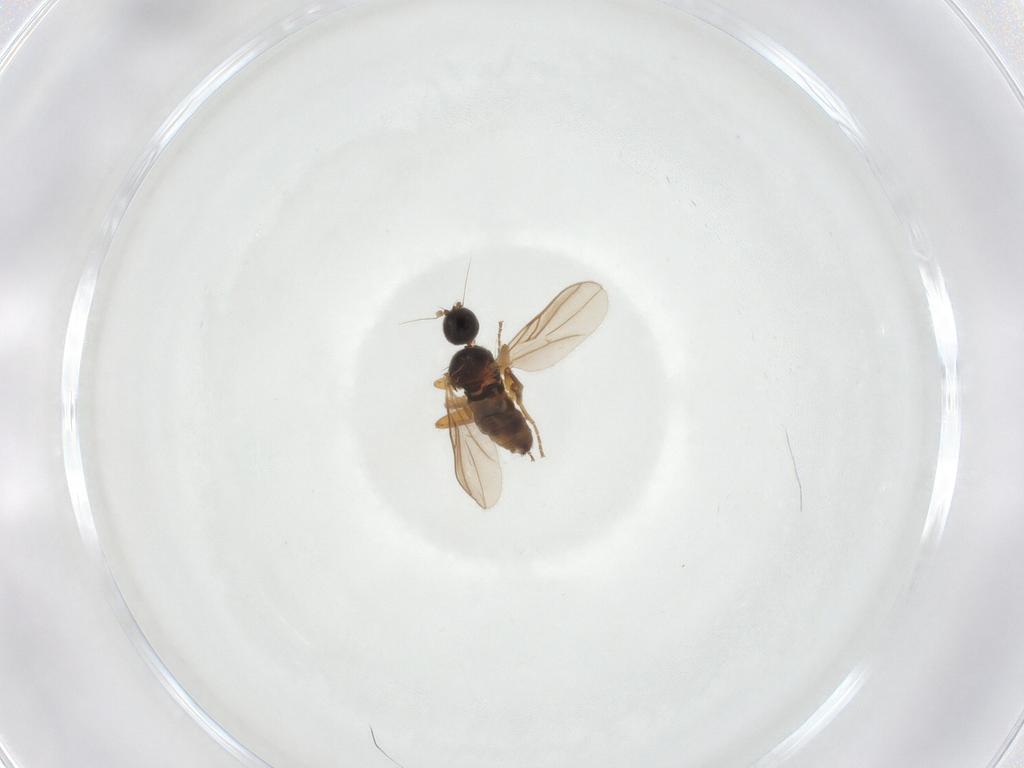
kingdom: Animalia
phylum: Arthropoda
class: Insecta
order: Diptera
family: Hybotidae
